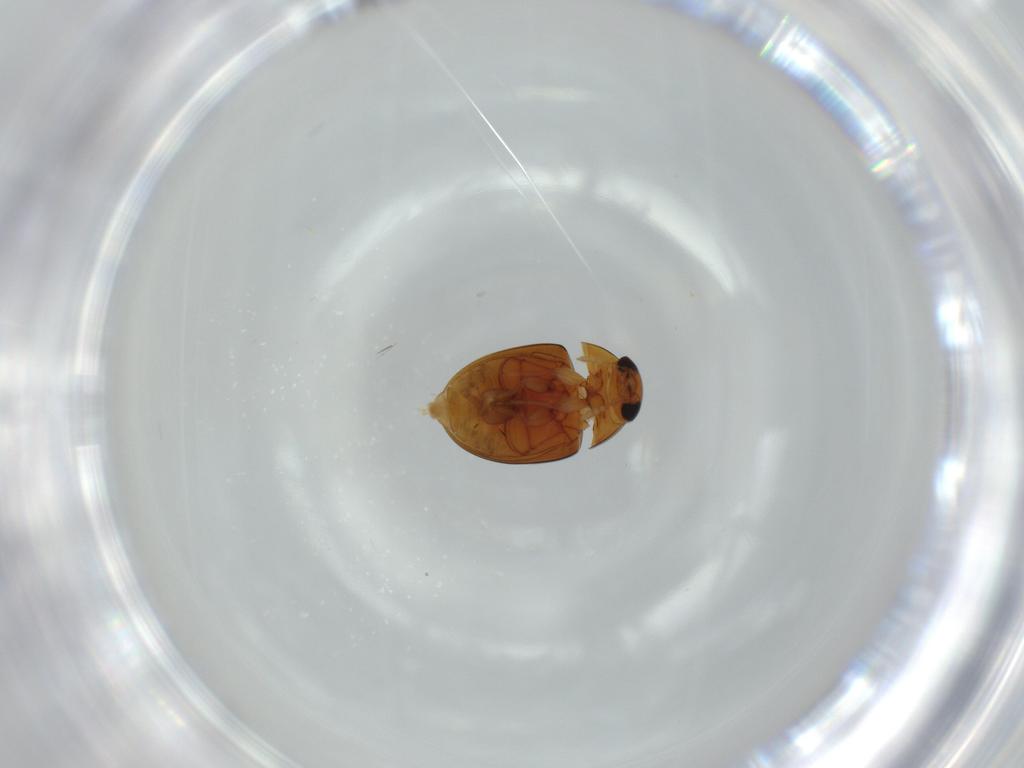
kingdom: Animalia
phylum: Arthropoda
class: Insecta
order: Coleoptera
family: Phalacridae
